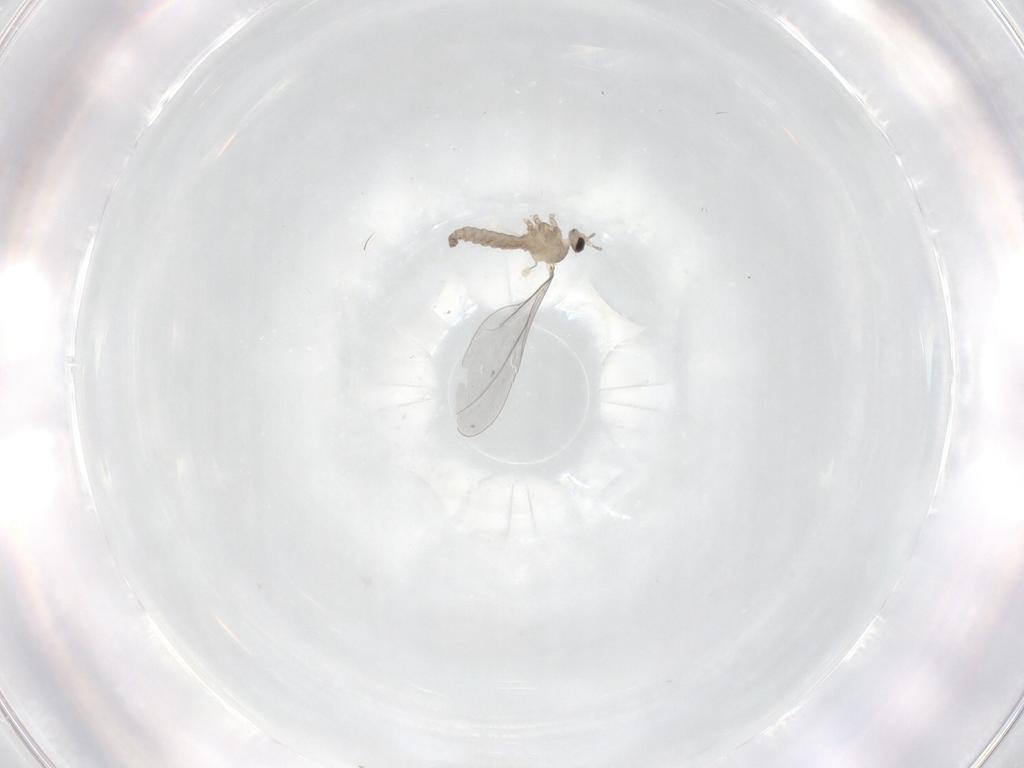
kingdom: Animalia
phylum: Arthropoda
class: Insecta
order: Diptera
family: Cecidomyiidae
